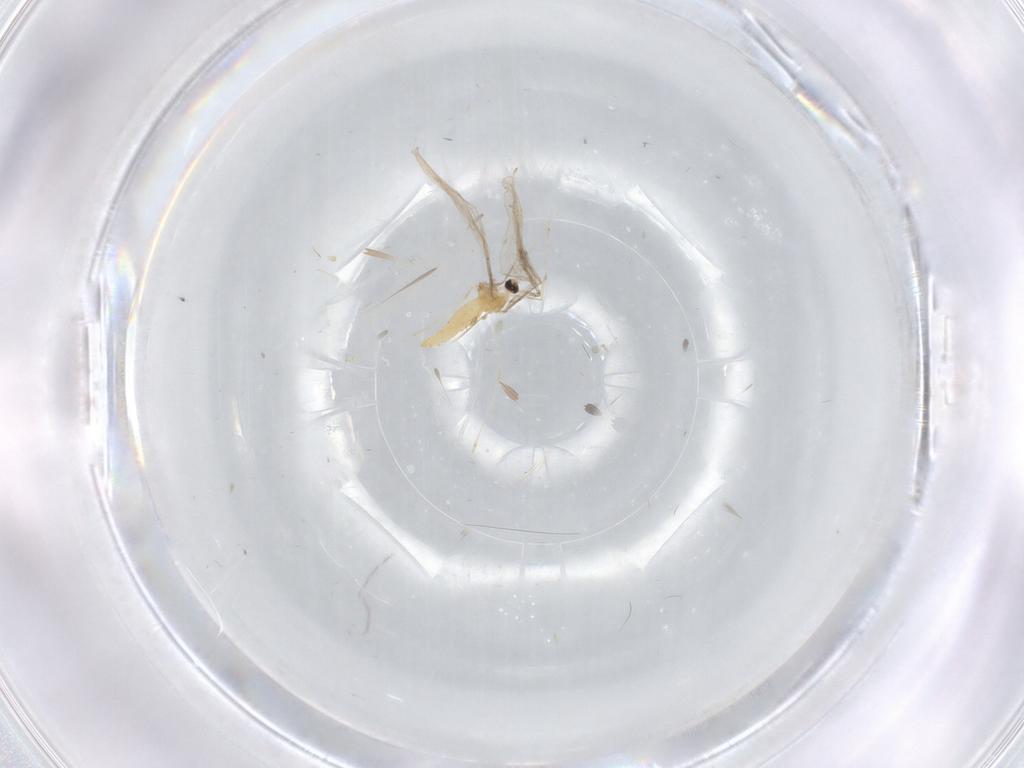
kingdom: Animalia
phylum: Arthropoda
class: Insecta
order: Diptera
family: Cecidomyiidae
